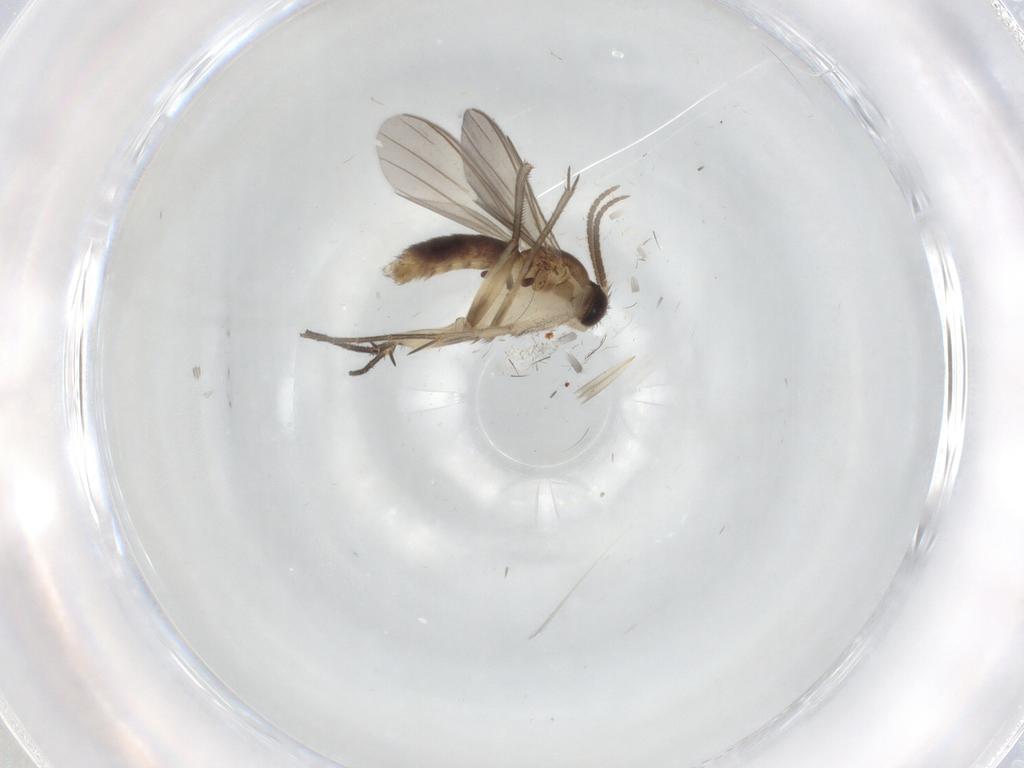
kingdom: Animalia
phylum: Arthropoda
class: Insecta
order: Diptera
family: Mycetophilidae
